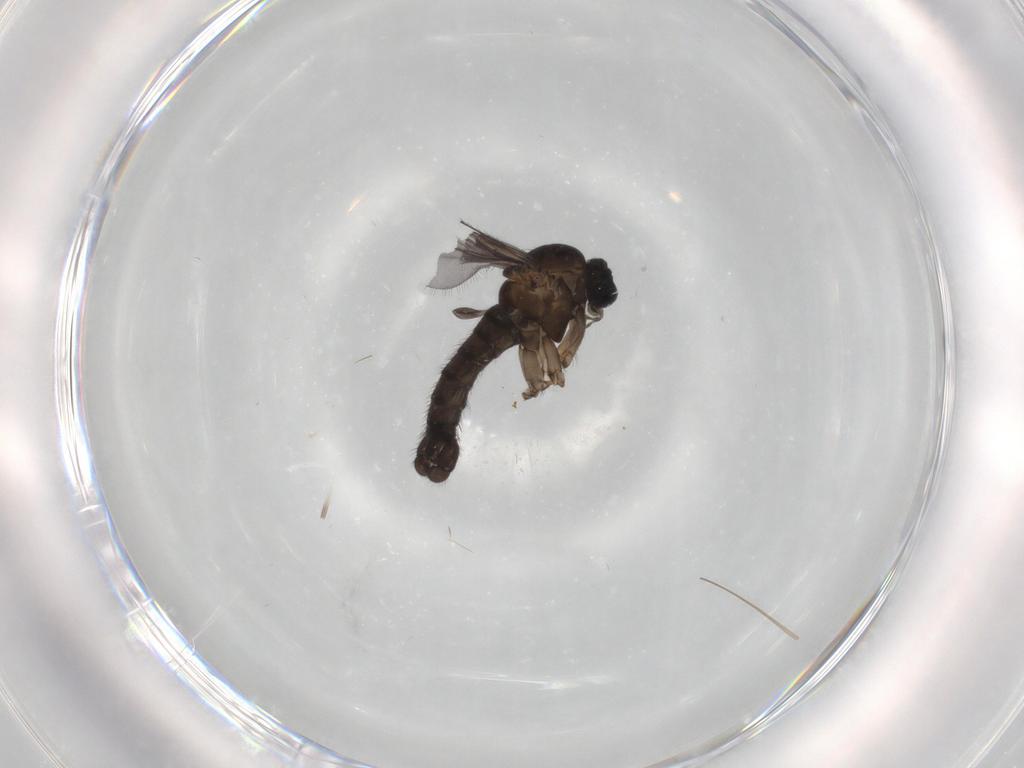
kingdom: Animalia
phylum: Arthropoda
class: Insecta
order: Diptera
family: Sciaridae
